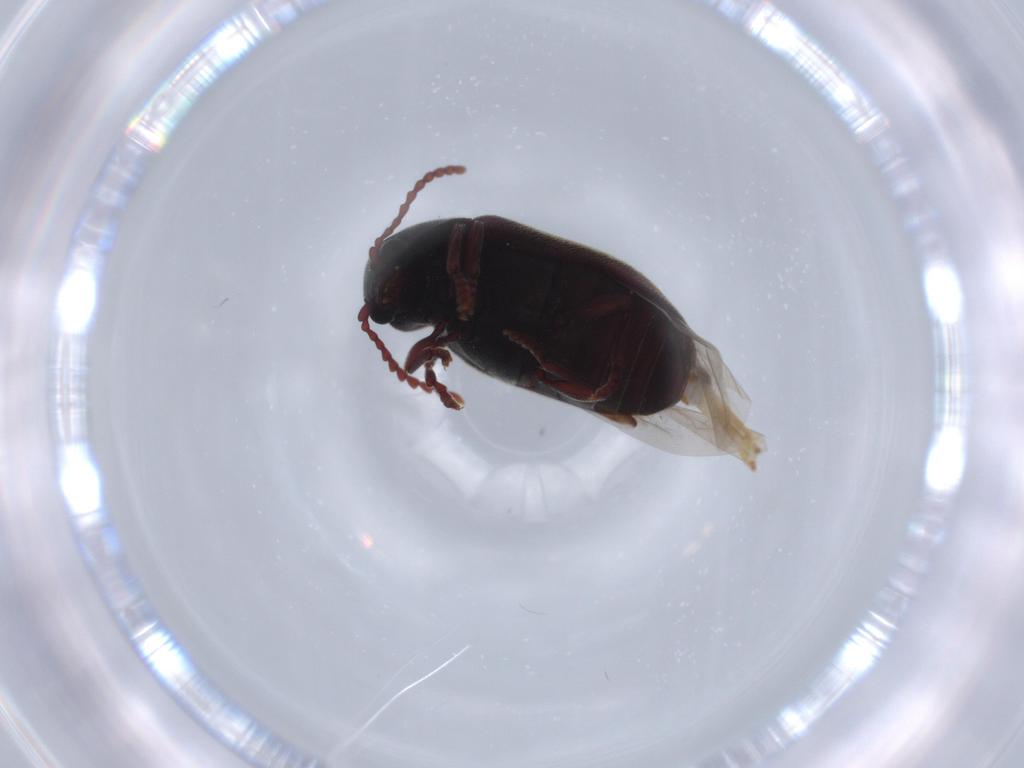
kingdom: Animalia
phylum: Arthropoda
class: Insecta
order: Coleoptera
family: Ptinidae
